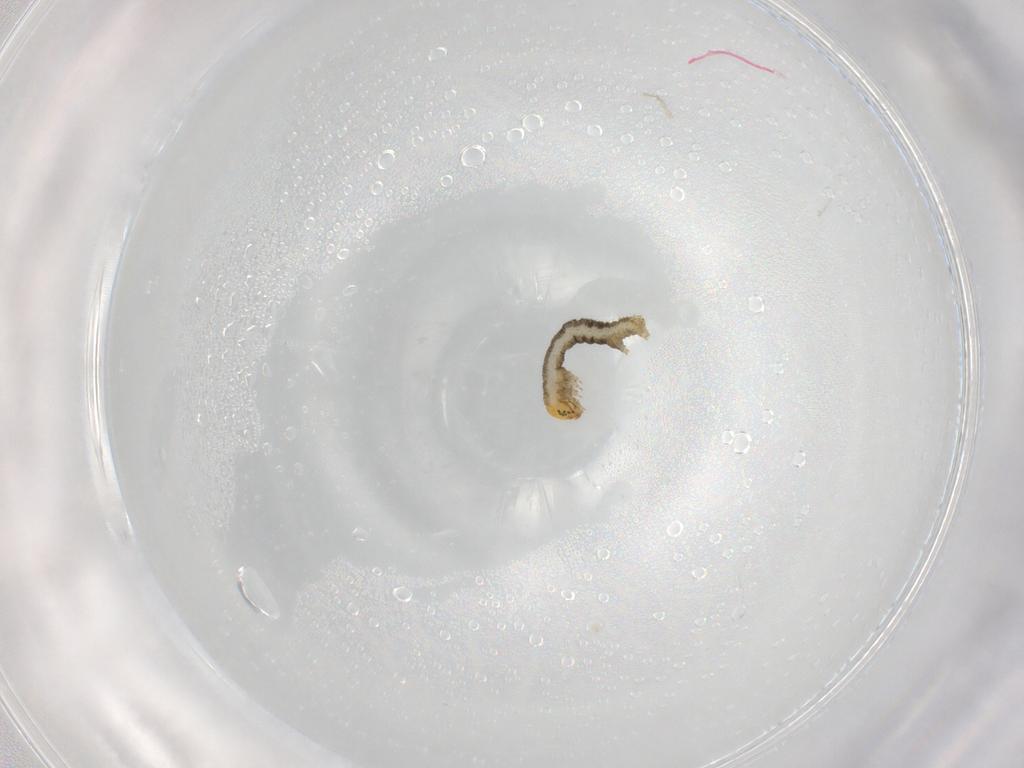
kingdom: Animalia
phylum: Arthropoda
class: Insecta
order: Lepidoptera
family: Geometridae
